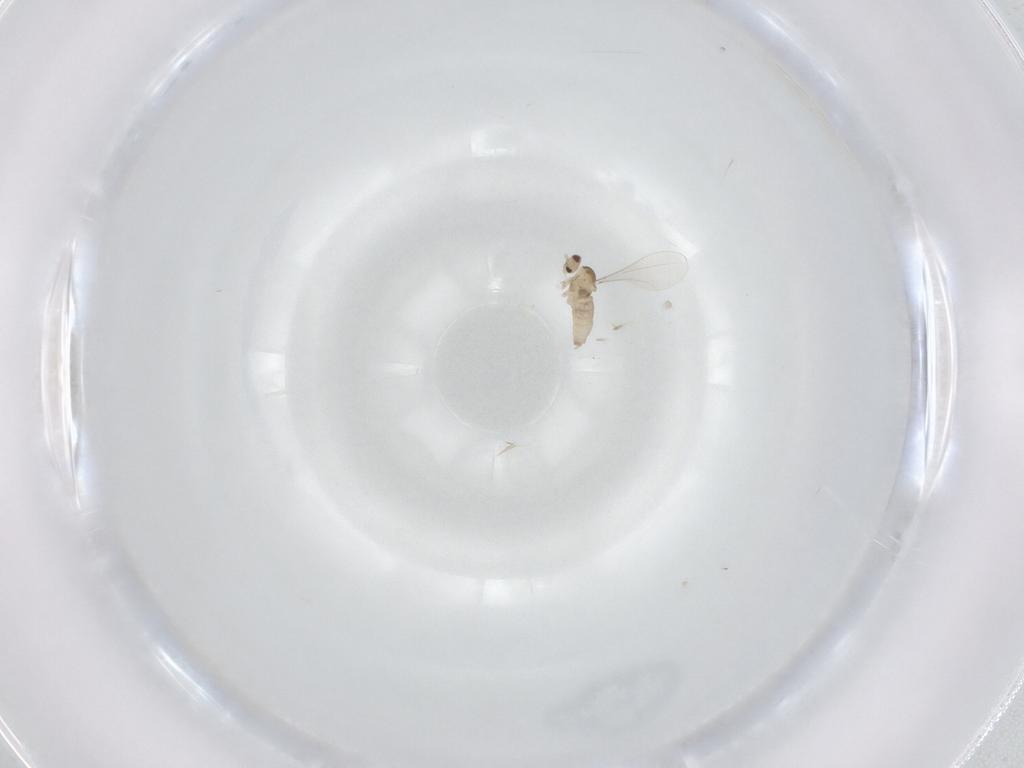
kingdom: Animalia
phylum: Arthropoda
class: Insecta
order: Diptera
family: Cecidomyiidae
